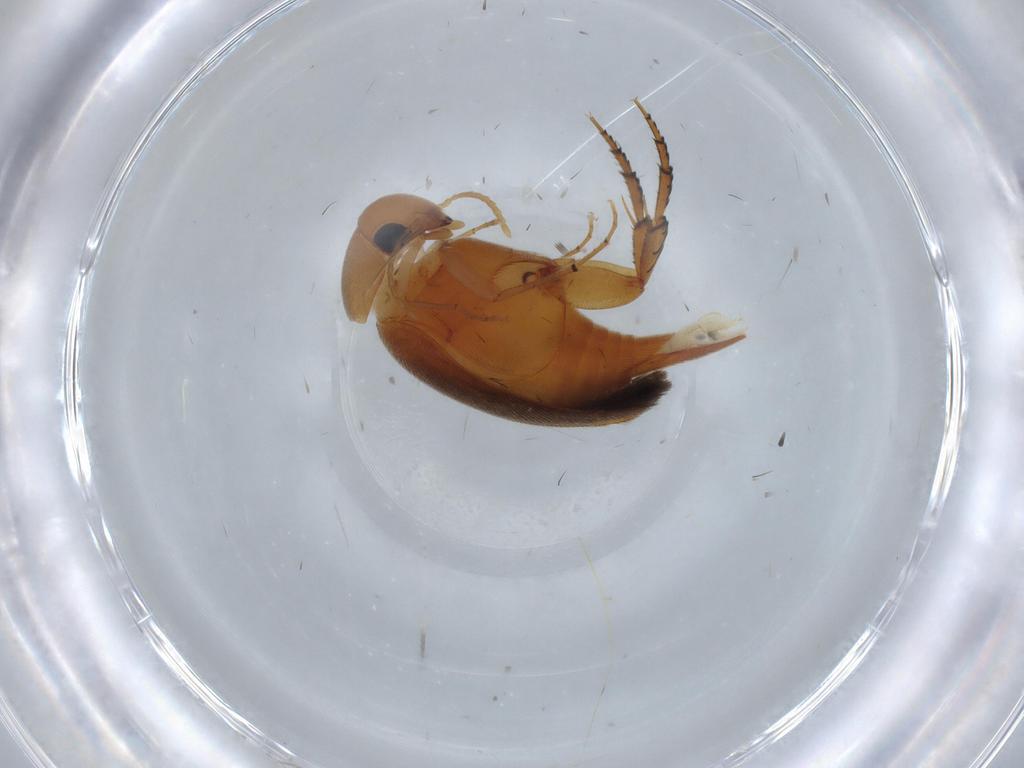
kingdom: Animalia
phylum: Arthropoda
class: Insecta
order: Coleoptera
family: Mordellidae
